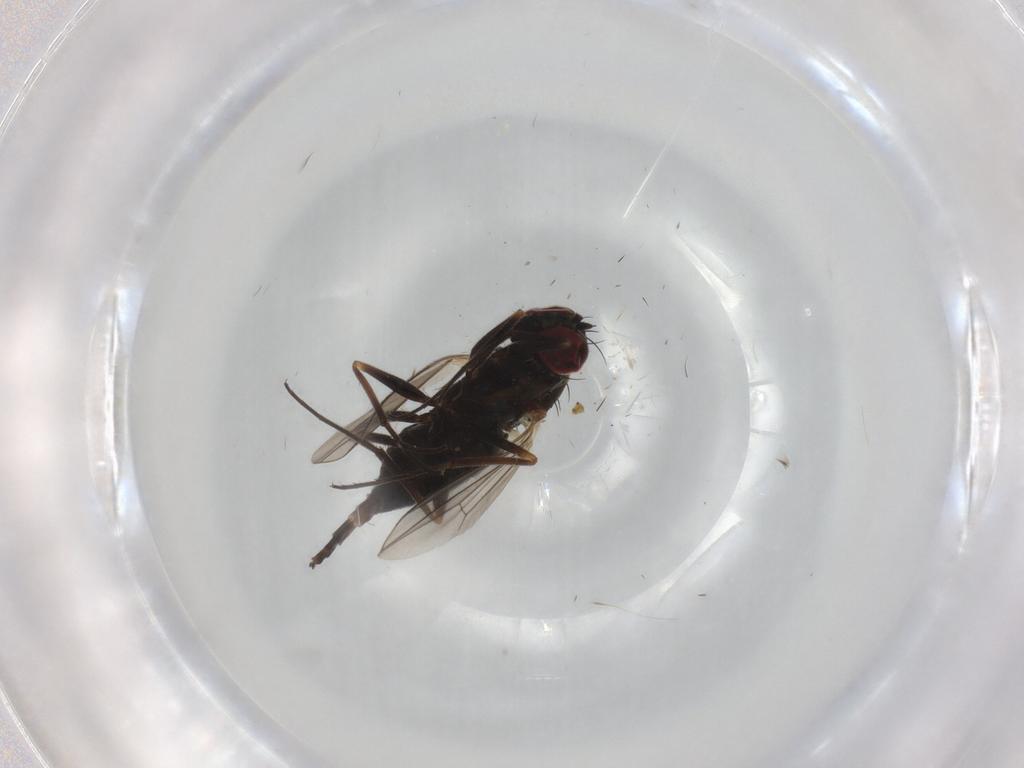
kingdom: Animalia
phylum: Arthropoda
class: Insecta
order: Diptera
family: Dolichopodidae
